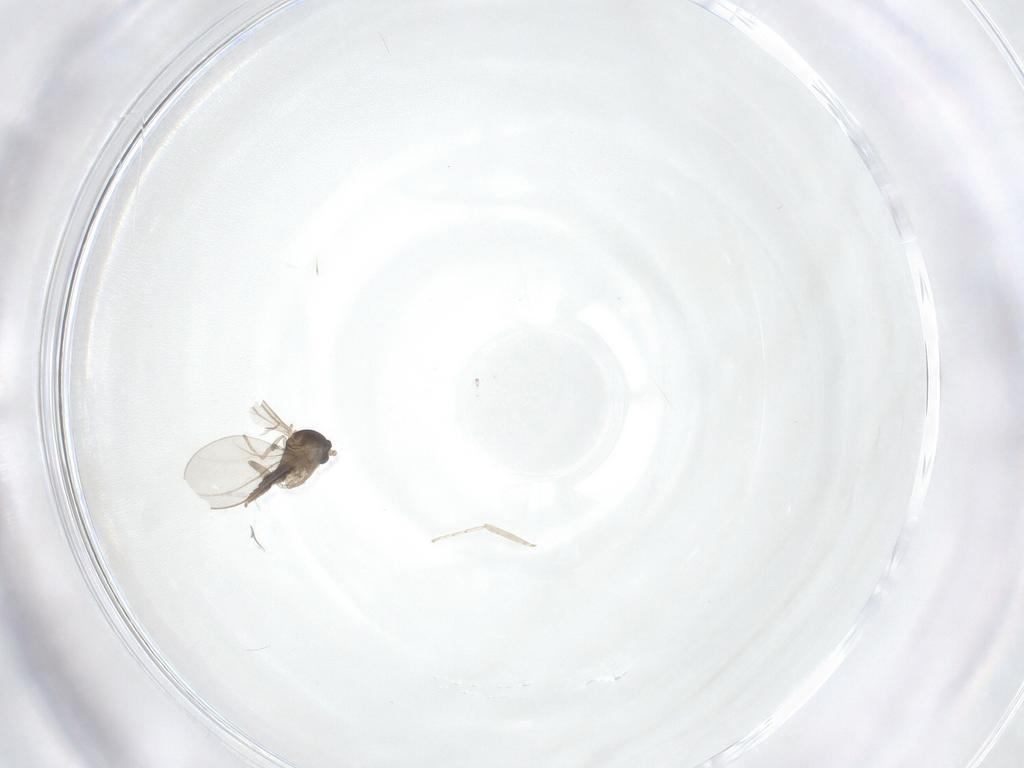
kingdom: Animalia
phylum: Arthropoda
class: Insecta
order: Diptera
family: Cecidomyiidae
